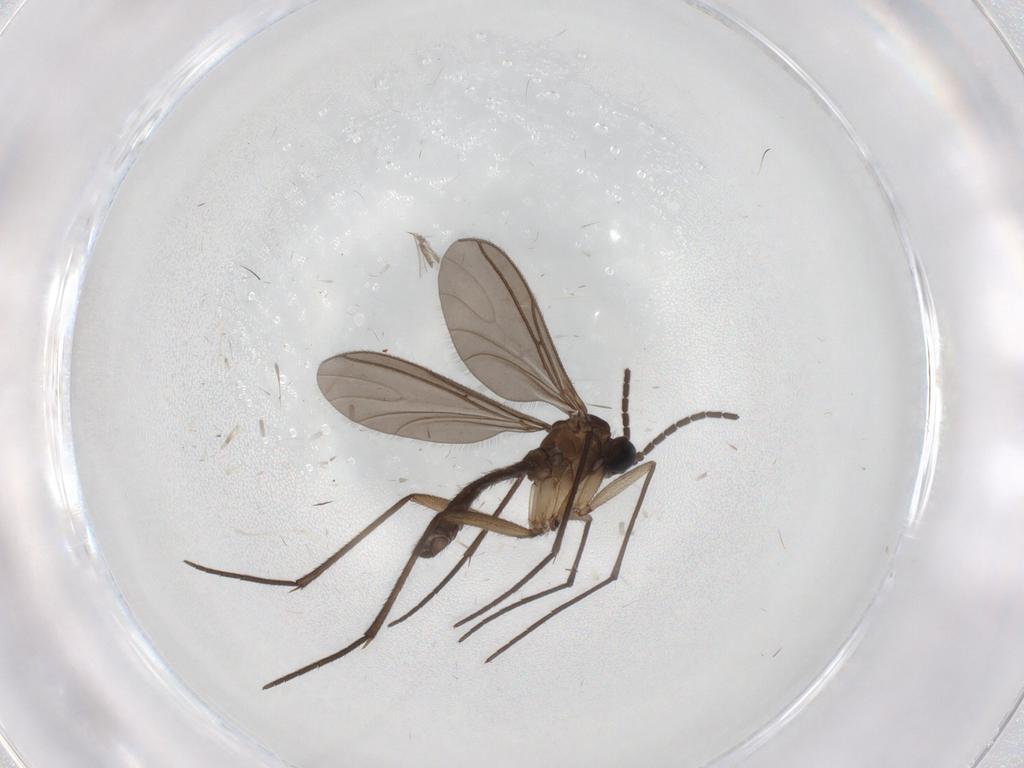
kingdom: Animalia
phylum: Arthropoda
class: Insecta
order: Diptera
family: Sciaridae
